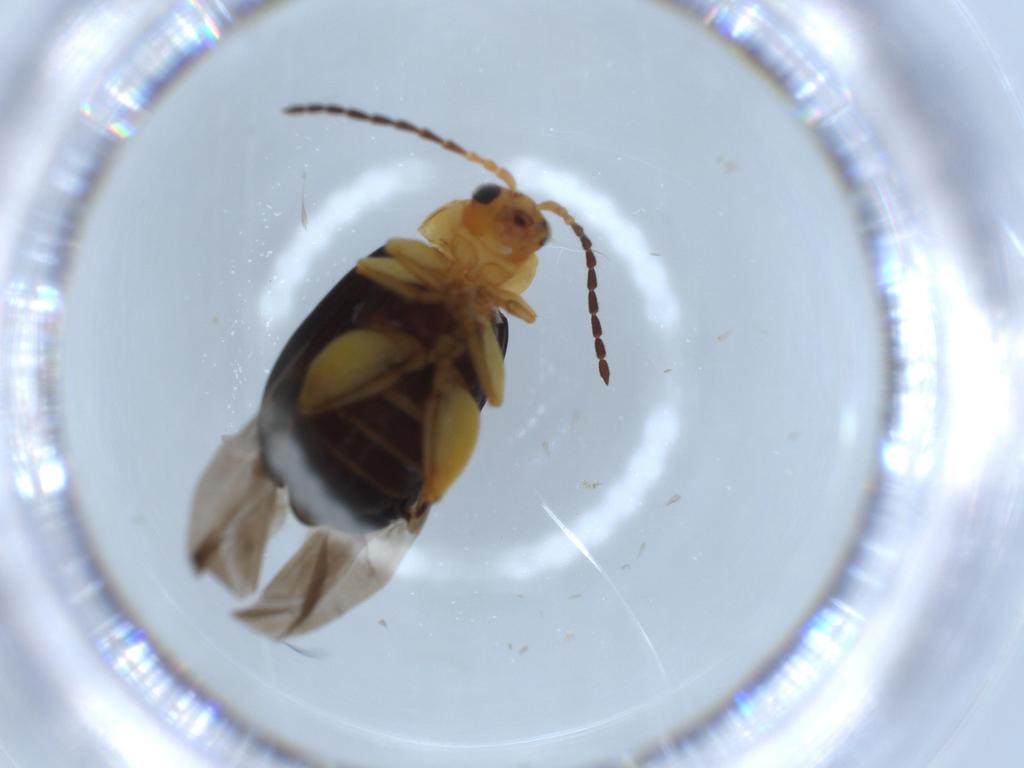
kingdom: Animalia
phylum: Arthropoda
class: Insecta
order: Coleoptera
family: Chrysomelidae
